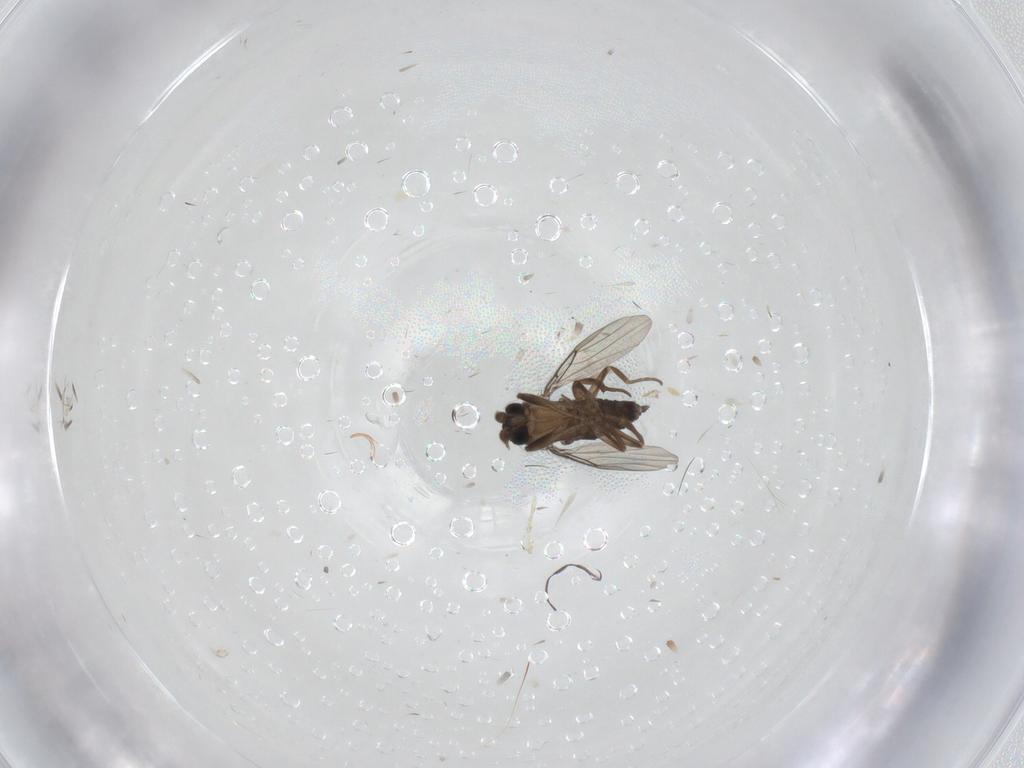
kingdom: Animalia
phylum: Arthropoda
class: Insecta
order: Diptera
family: Phoridae
